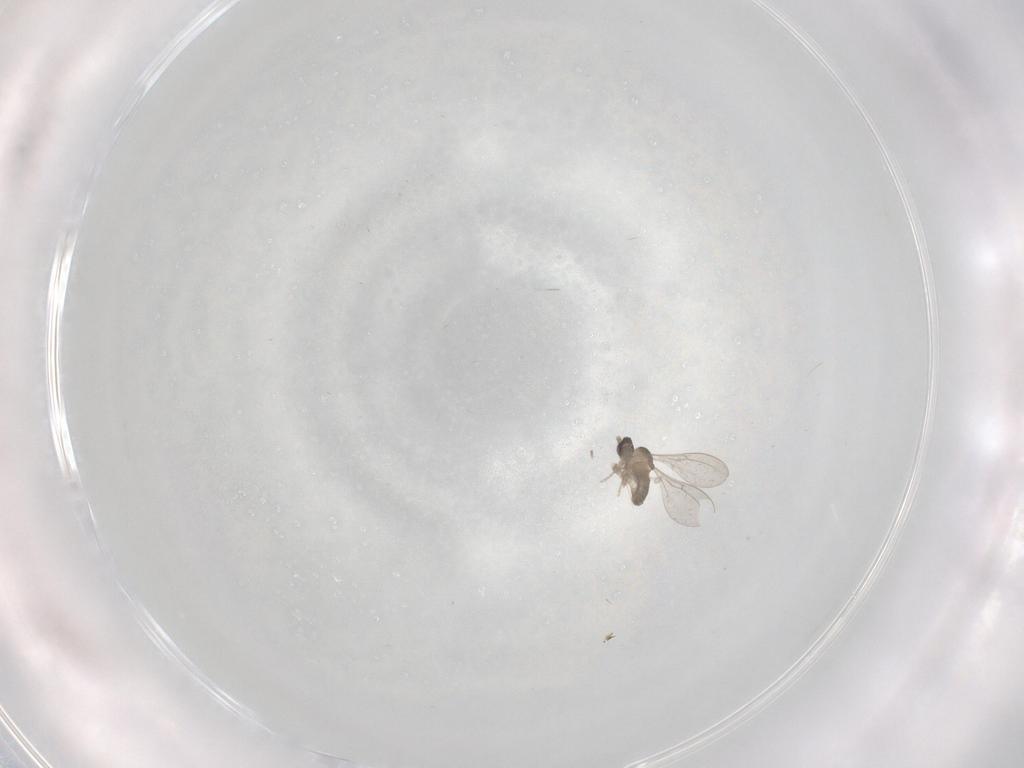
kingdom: Animalia
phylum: Arthropoda
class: Insecta
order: Diptera
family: Cecidomyiidae
